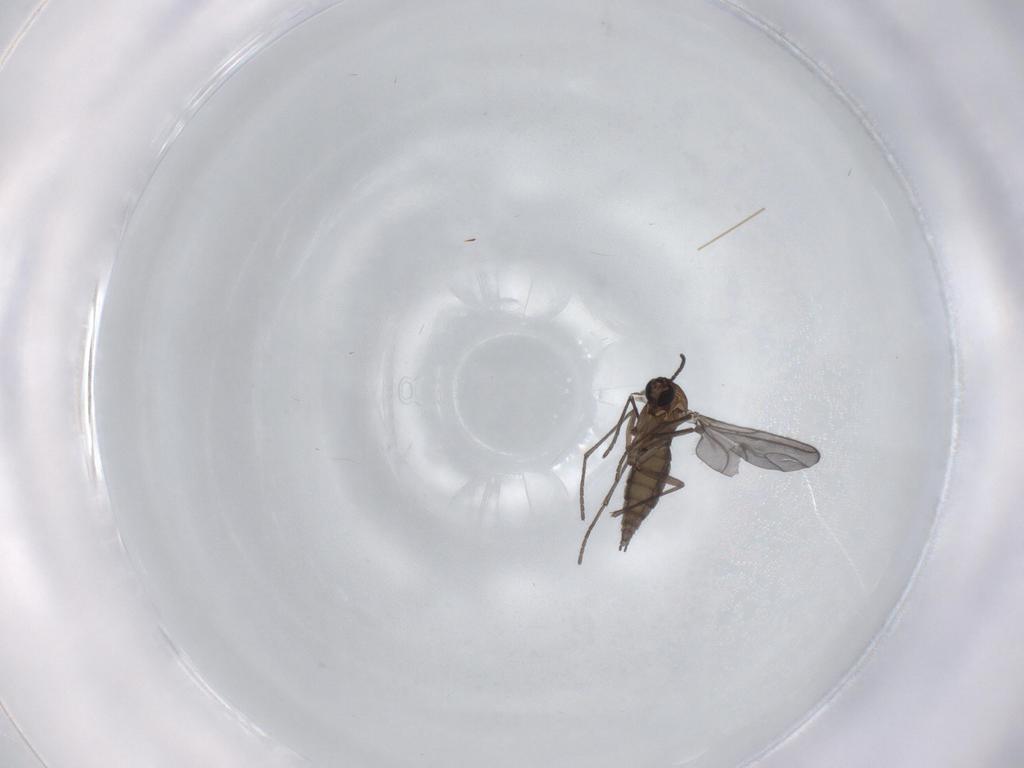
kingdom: Animalia
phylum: Arthropoda
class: Insecta
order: Diptera
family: Sciaridae
